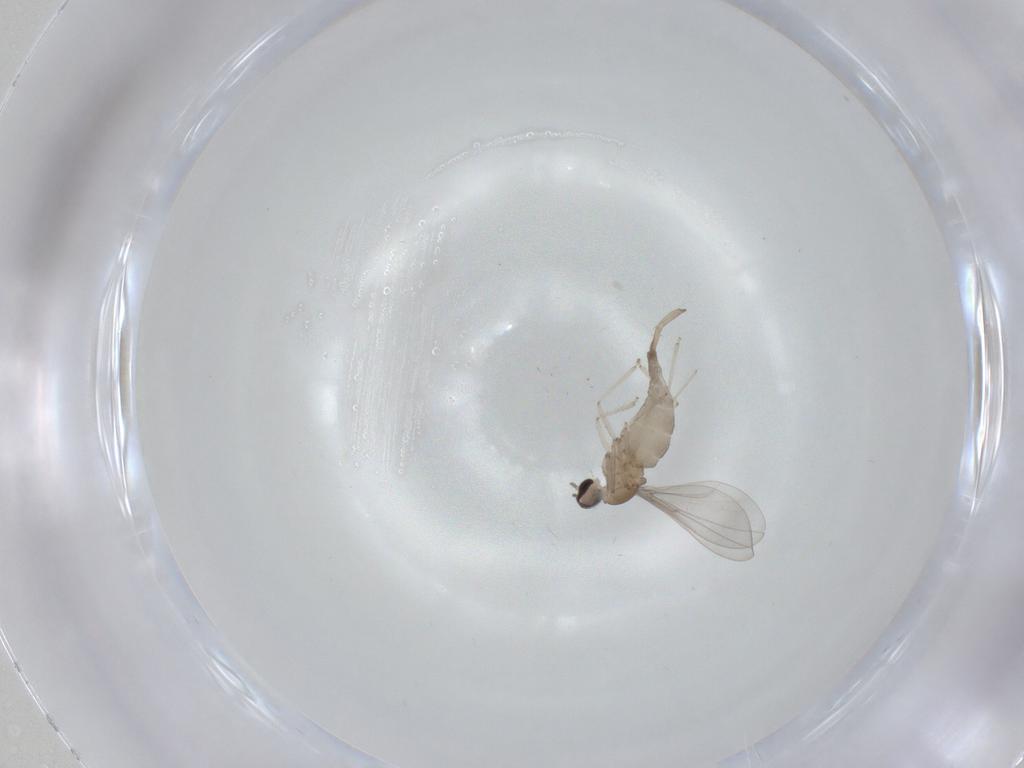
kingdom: Animalia
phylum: Arthropoda
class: Insecta
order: Diptera
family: Cecidomyiidae
